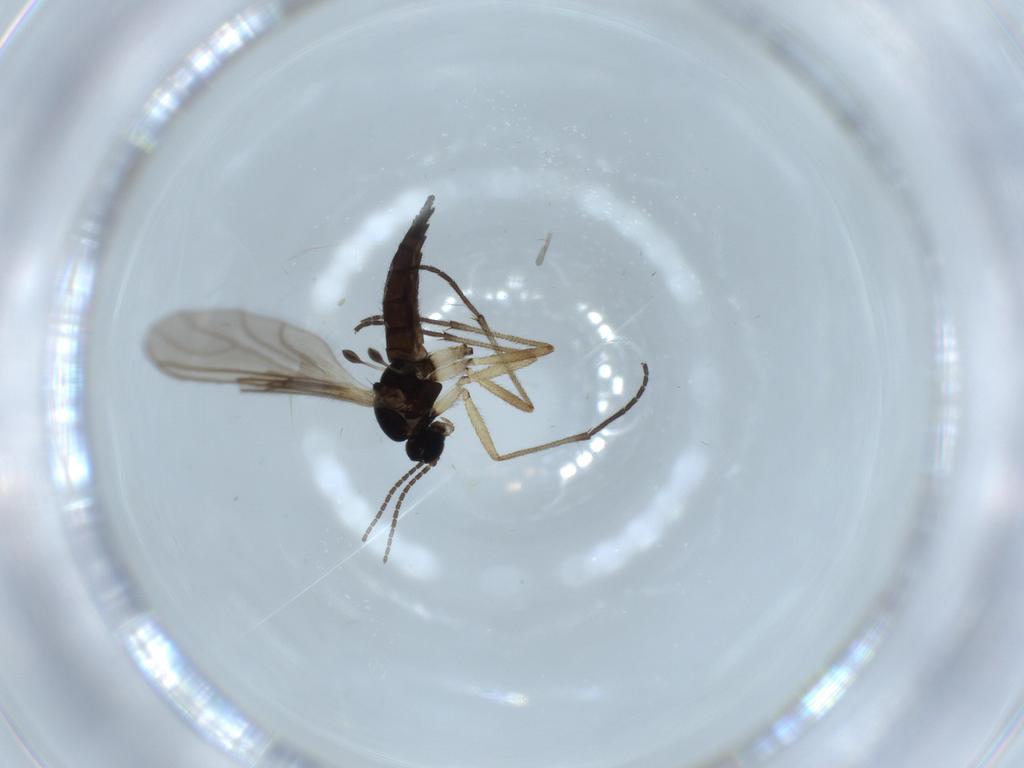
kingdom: Animalia
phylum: Arthropoda
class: Insecta
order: Diptera
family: Sciaridae
